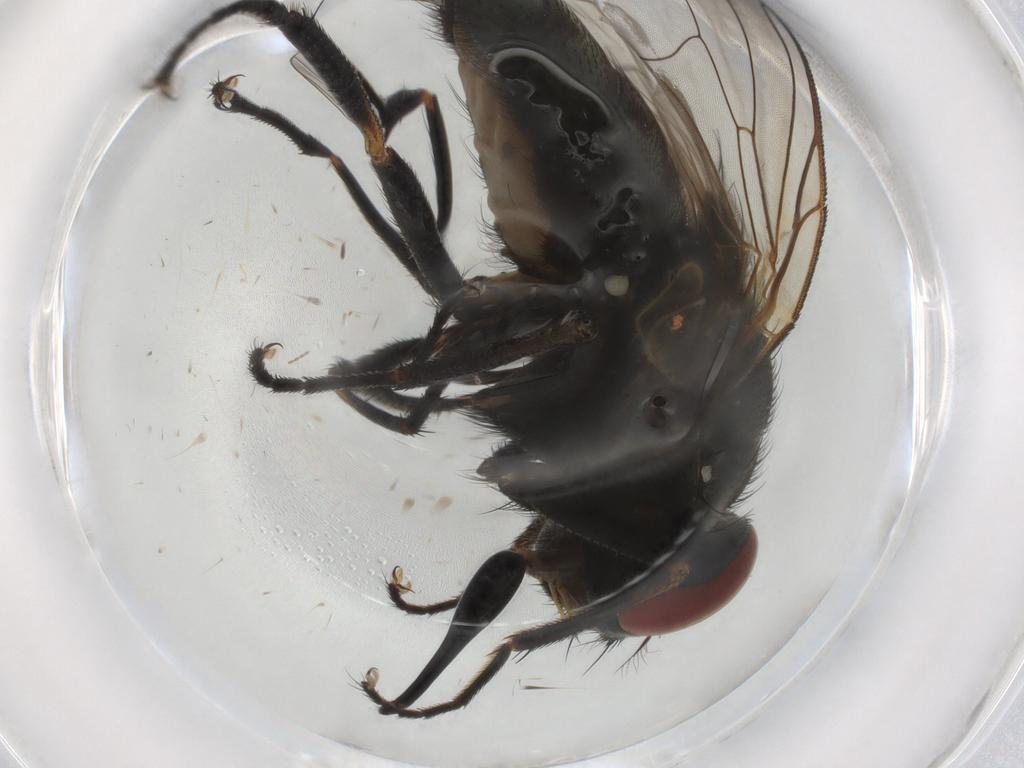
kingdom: Animalia
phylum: Arthropoda
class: Insecta
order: Diptera
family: Muscidae
